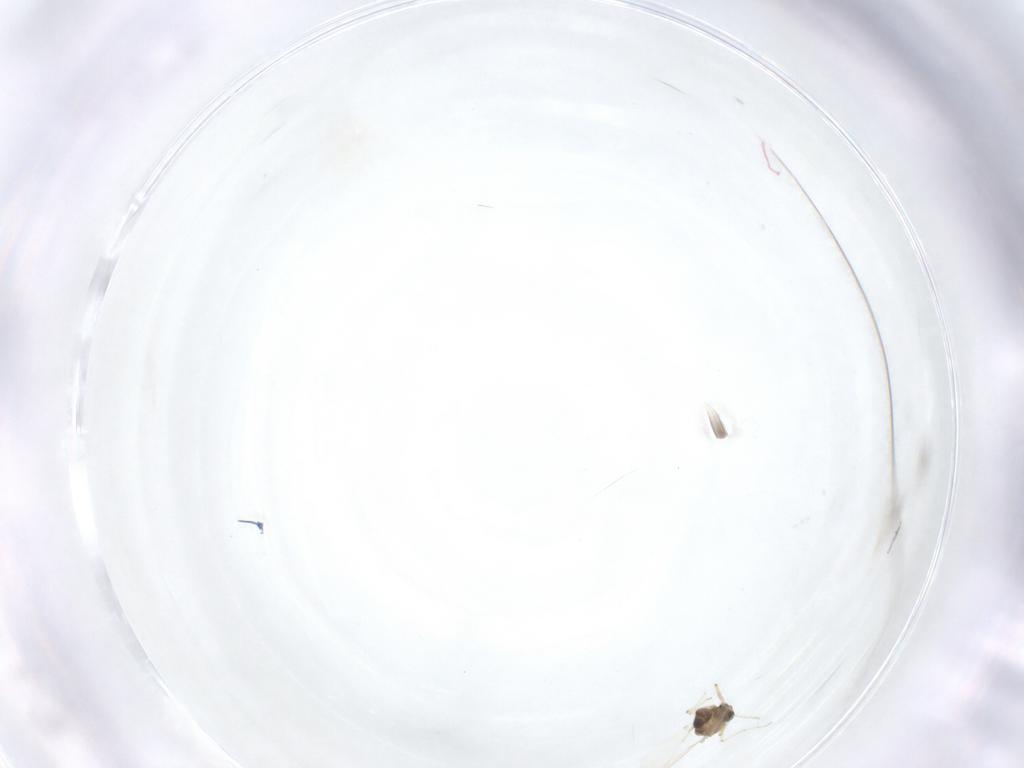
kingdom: Animalia
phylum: Arthropoda
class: Insecta
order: Diptera
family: Chironomidae
